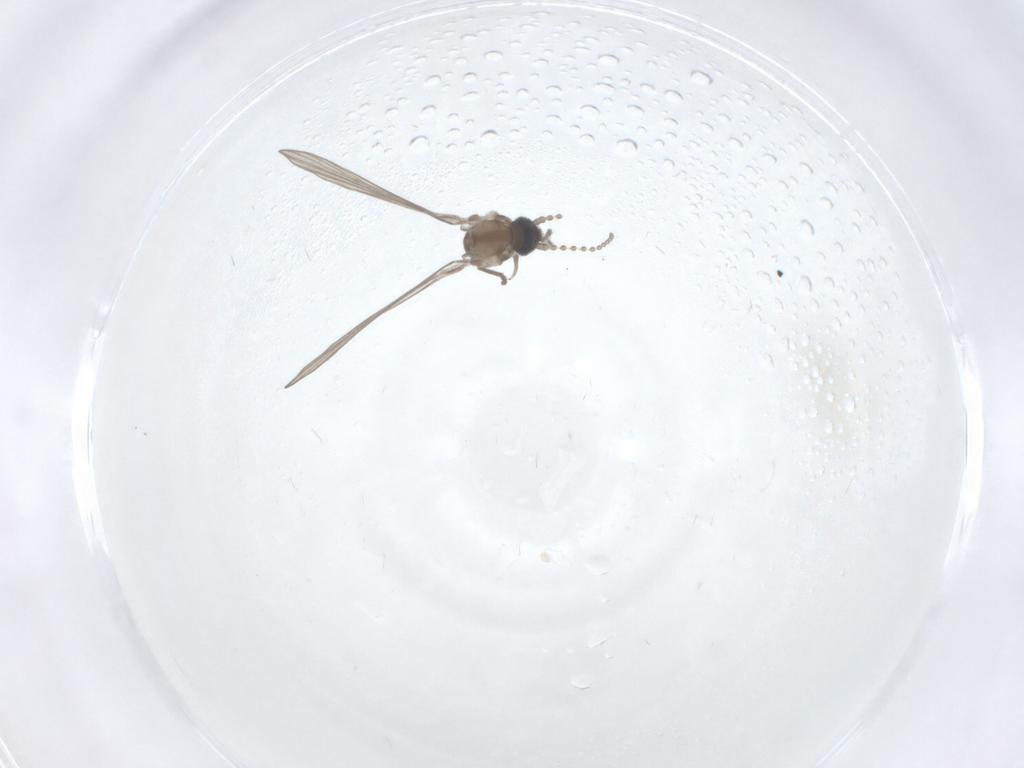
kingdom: Animalia
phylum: Arthropoda
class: Insecta
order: Diptera
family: Psychodidae
